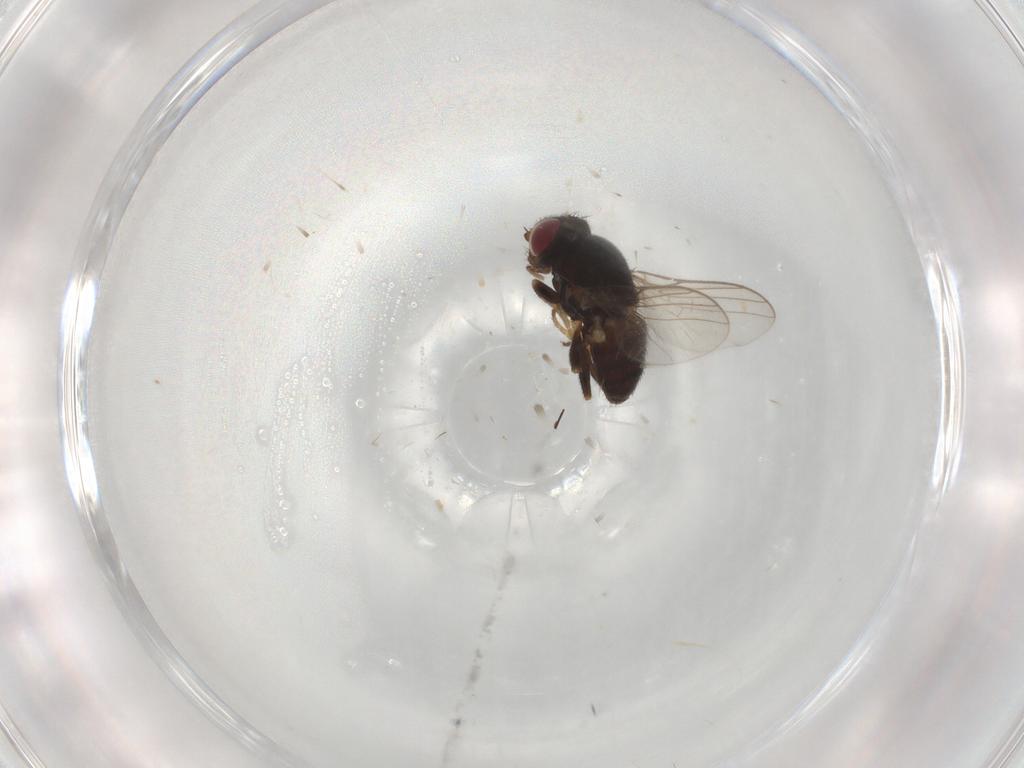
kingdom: Animalia
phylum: Arthropoda
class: Insecta
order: Diptera
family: Chloropidae
